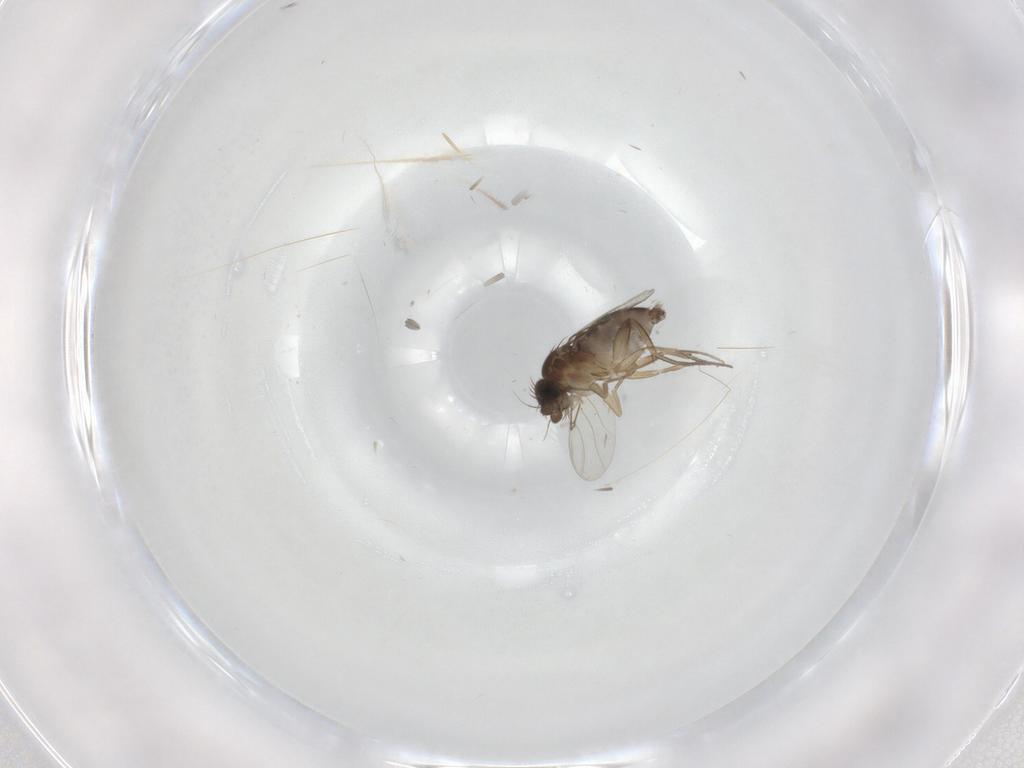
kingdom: Animalia
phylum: Arthropoda
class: Insecta
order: Diptera
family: Phoridae
